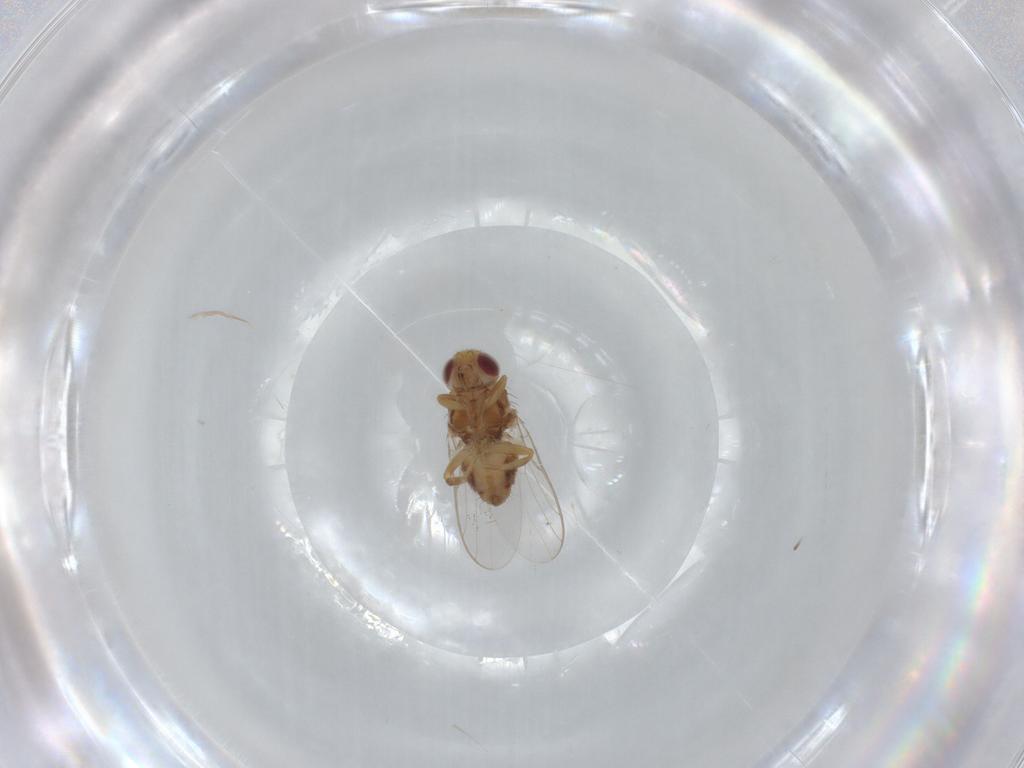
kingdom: Animalia
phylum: Arthropoda
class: Insecta
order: Diptera
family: Chloropidae
